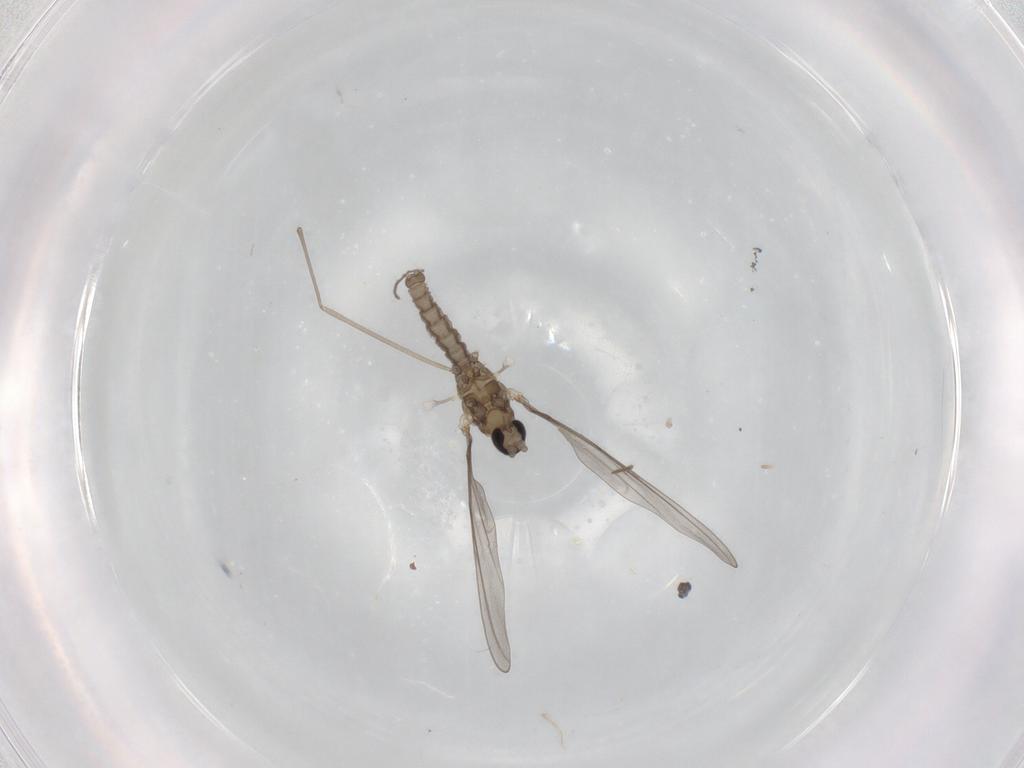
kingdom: Animalia
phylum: Arthropoda
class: Insecta
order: Diptera
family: Cecidomyiidae
